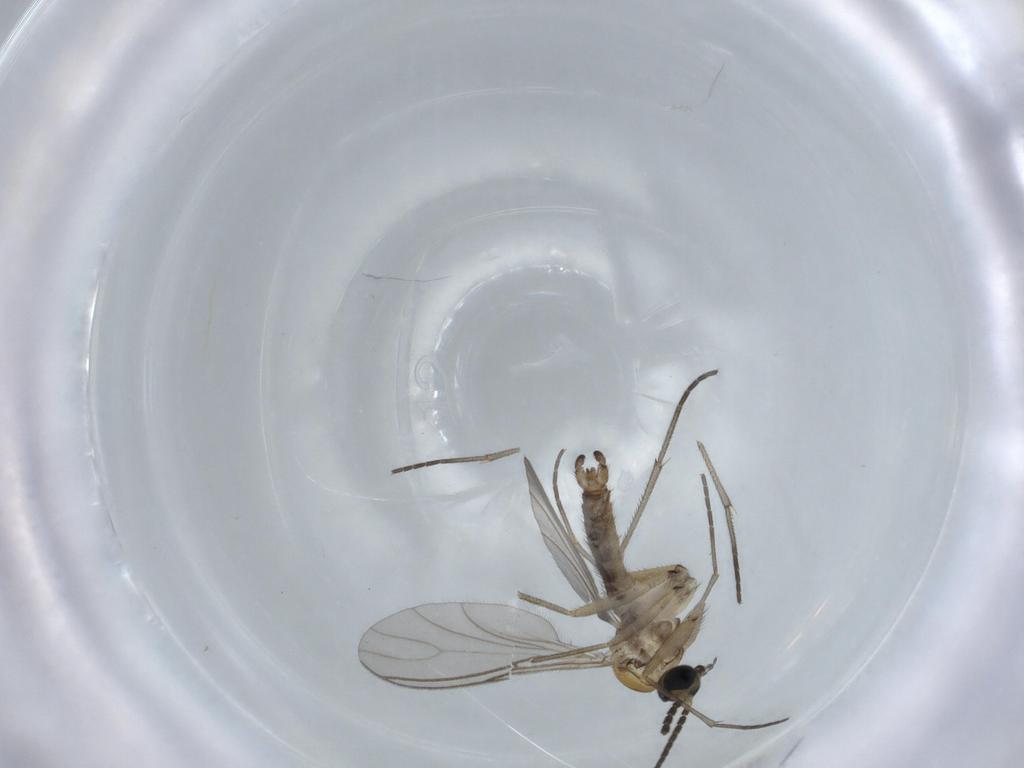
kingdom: Animalia
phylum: Arthropoda
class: Insecta
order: Diptera
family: Sciaridae
